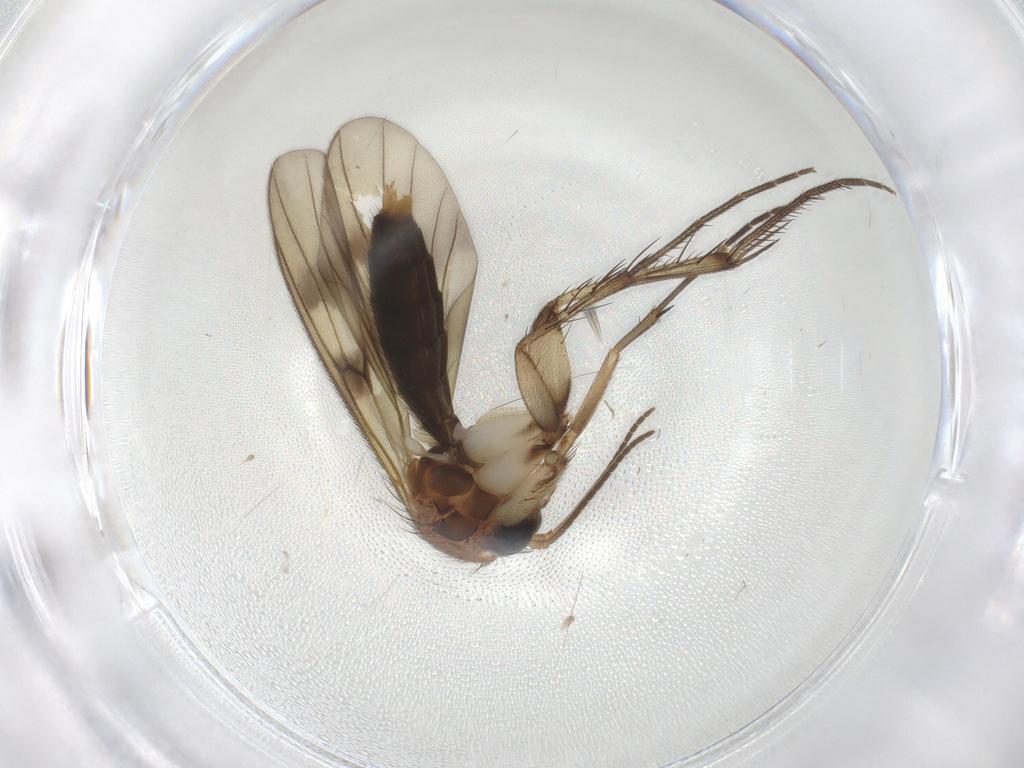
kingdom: Animalia
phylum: Arthropoda
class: Insecta
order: Diptera
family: Mycetophilidae
